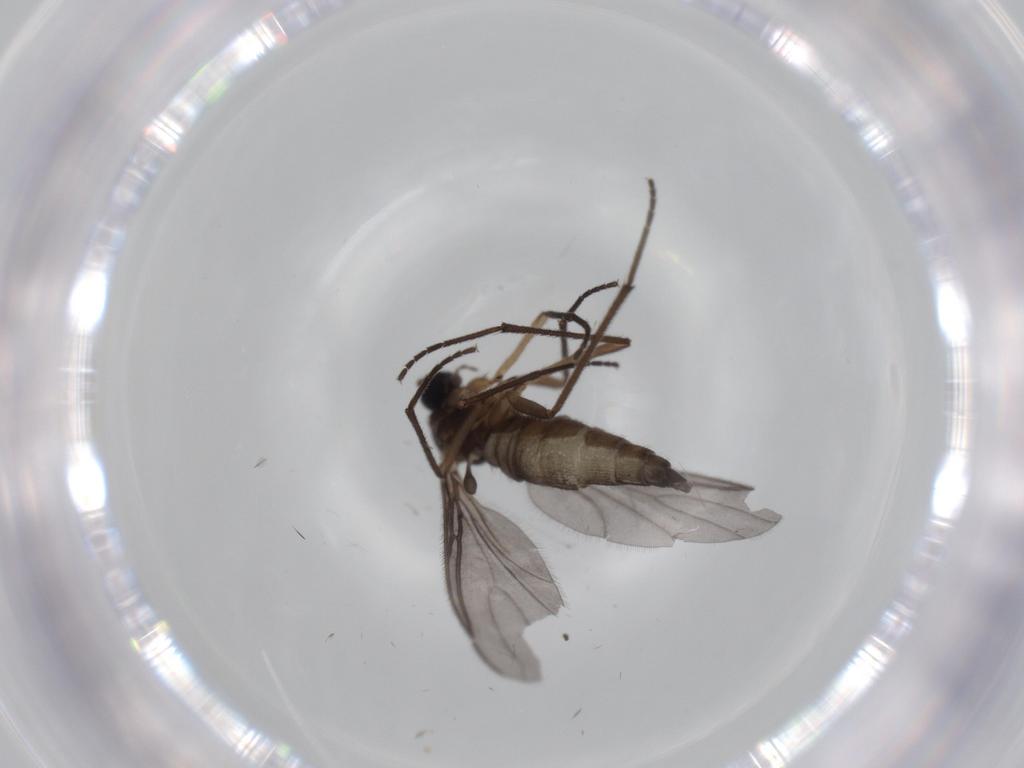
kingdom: Animalia
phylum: Arthropoda
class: Insecta
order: Diptera
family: Sciaridae
